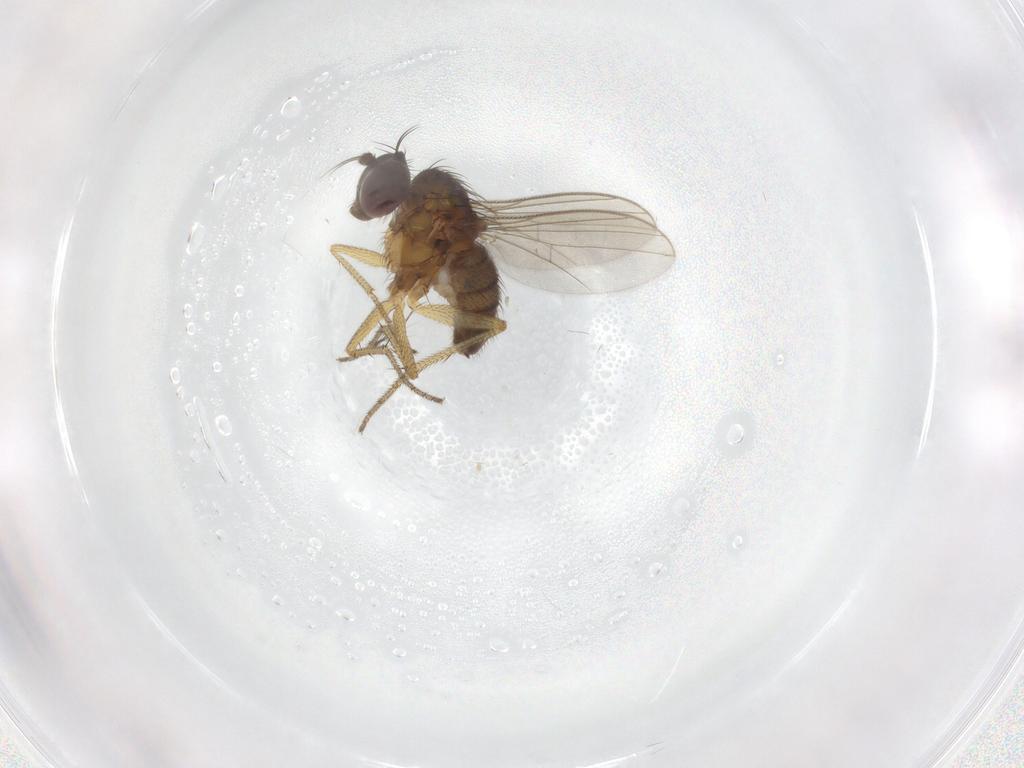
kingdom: Animalia
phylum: Arthropoda
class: Insecta
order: Diptera
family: Dolichopodidae
